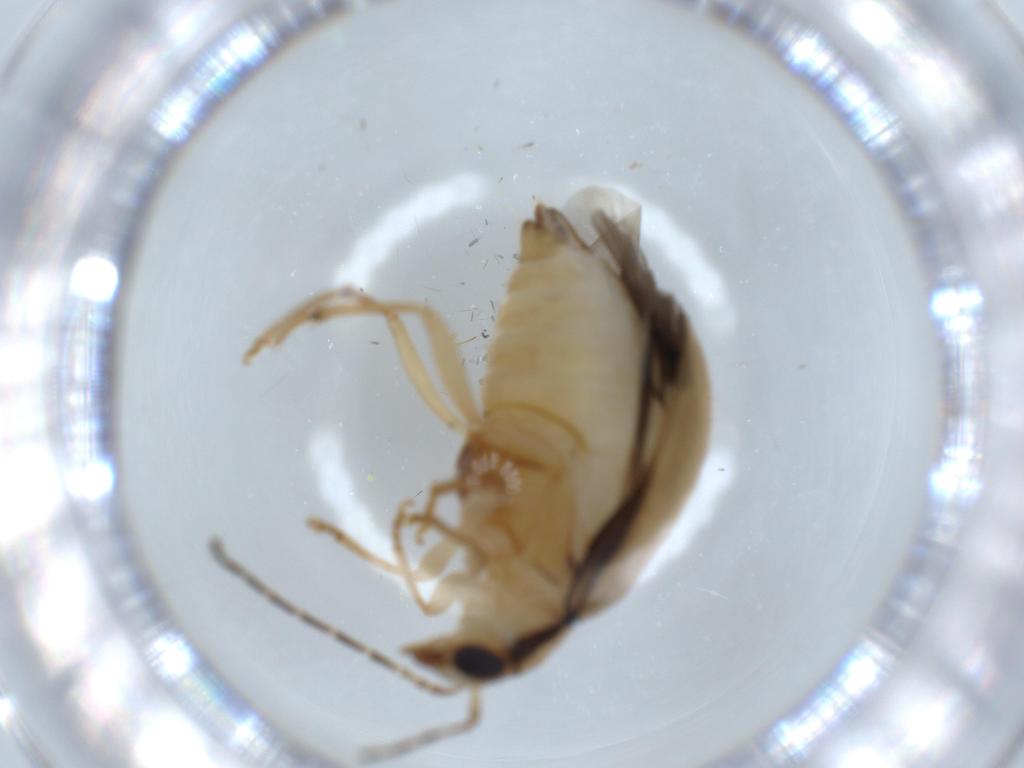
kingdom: Animalia
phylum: Arthropoda
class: Insecta
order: Coleoptera
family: Chrysomelidae
